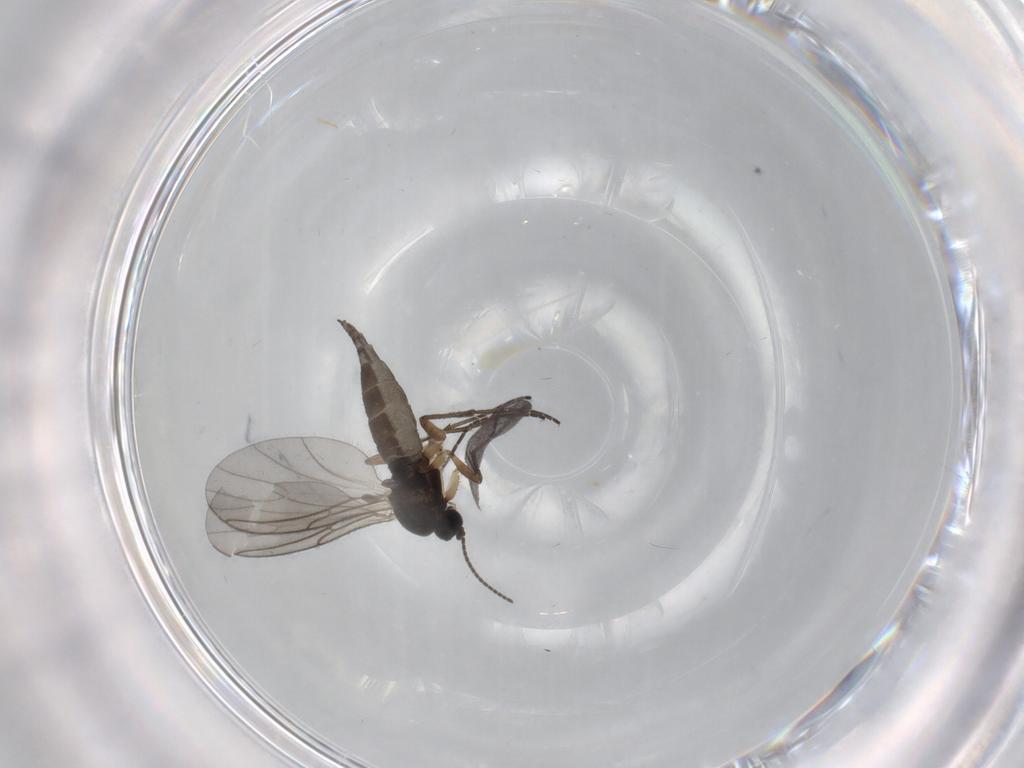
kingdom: Animalia
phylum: Arthropoda
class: Insecta
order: Diptera
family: Sciaridae
